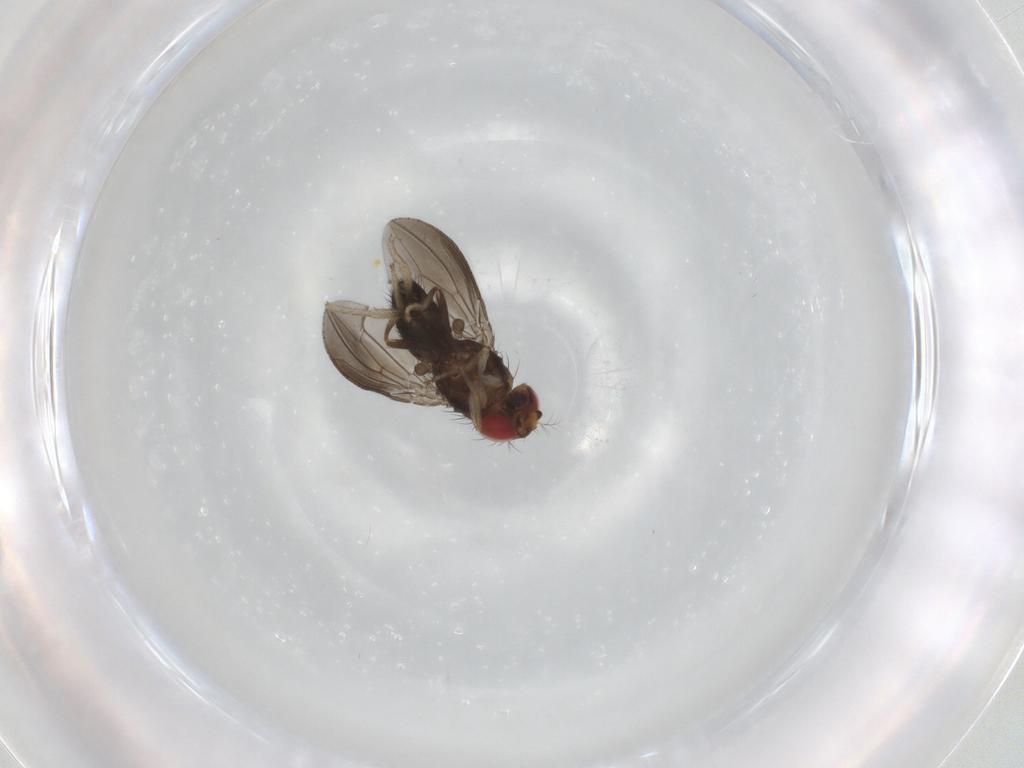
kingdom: Animalia
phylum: Arthropoda
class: Insecta
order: Diptera
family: Drosophilidae
